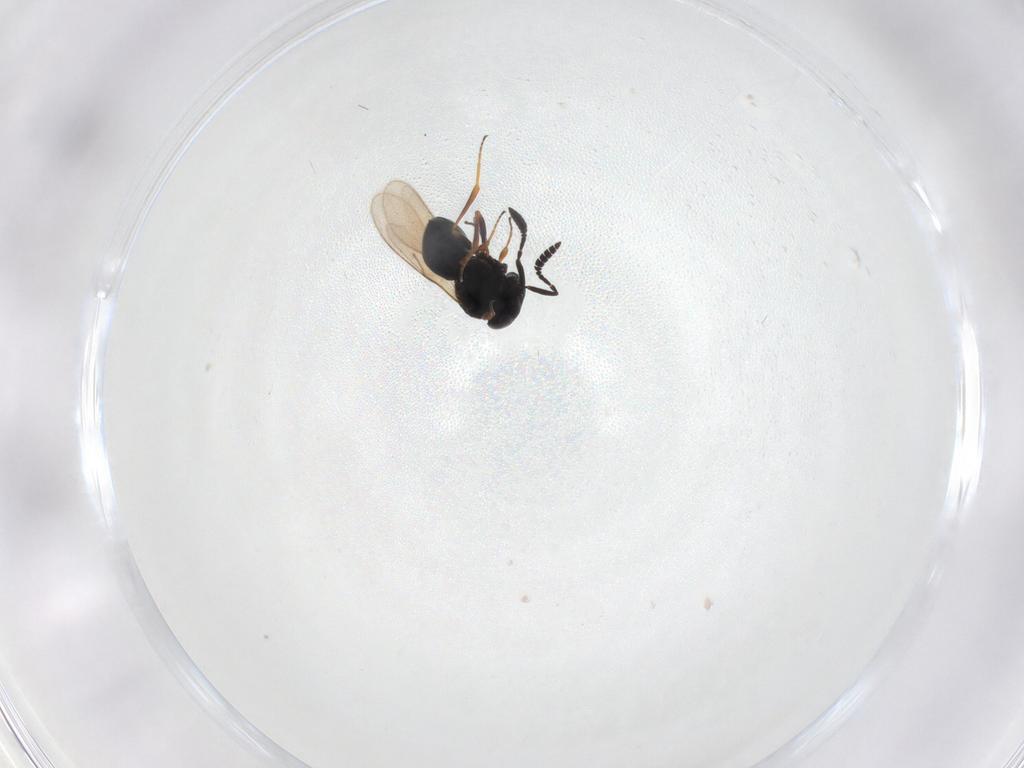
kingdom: Animalia
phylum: Arthropoda
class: Insecta
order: Hymenoptera
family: Scelionidae
